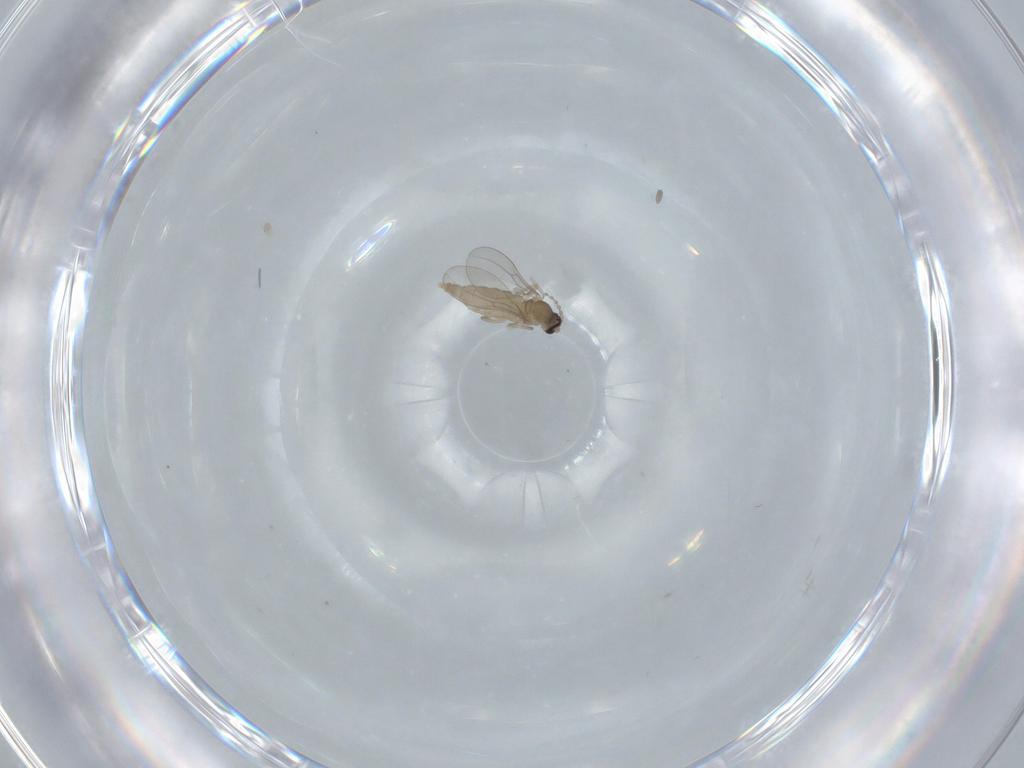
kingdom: Animalia
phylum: Arthropoda
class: Insecta
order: Diptera
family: Cecidomyiidae
